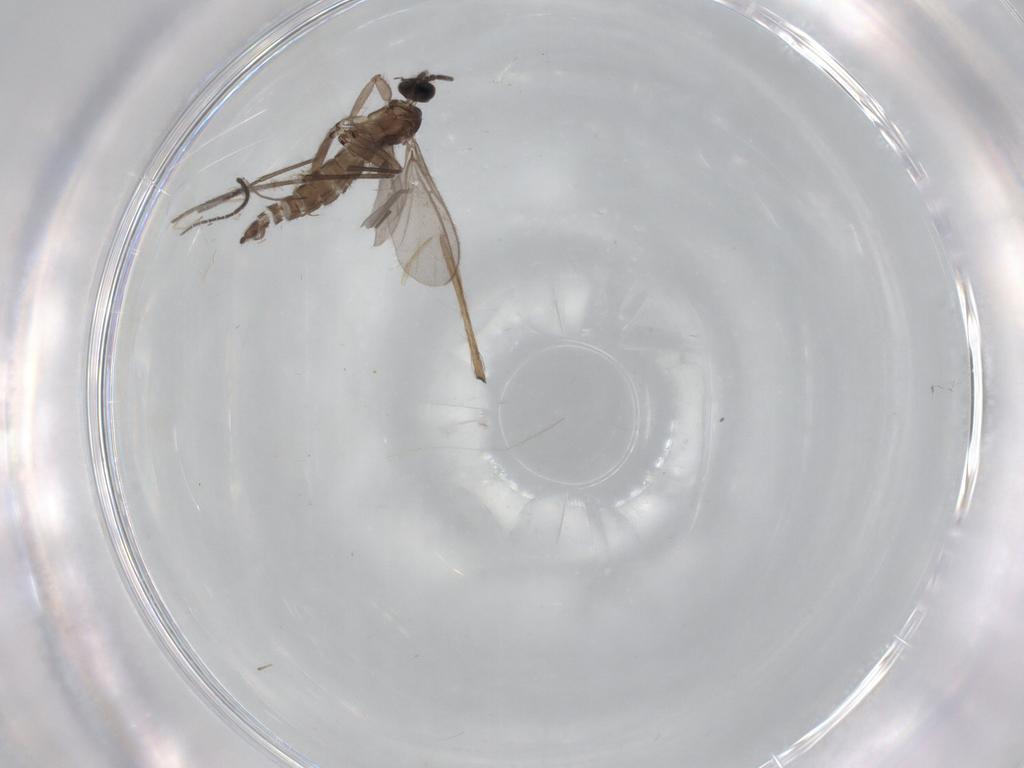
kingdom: Animalia
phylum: Arthropoda
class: Insecta
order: Diptera
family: Sciaridae
